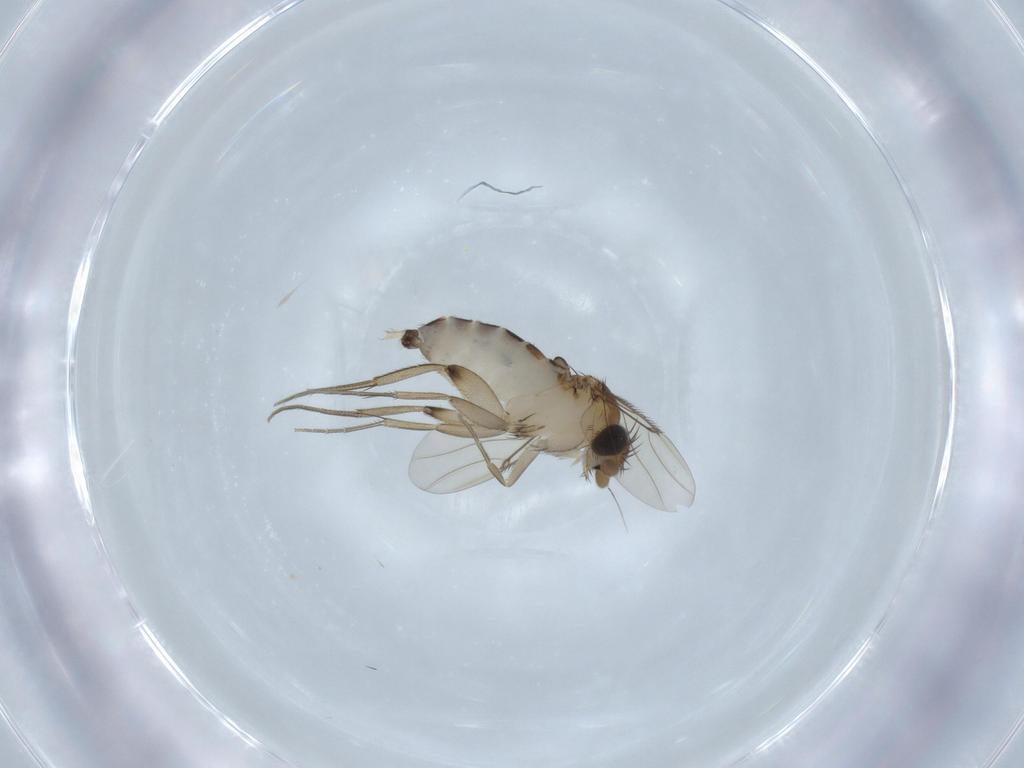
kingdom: Animalia
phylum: Arthropoda
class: Insecta
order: Diptera
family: Phoridae
